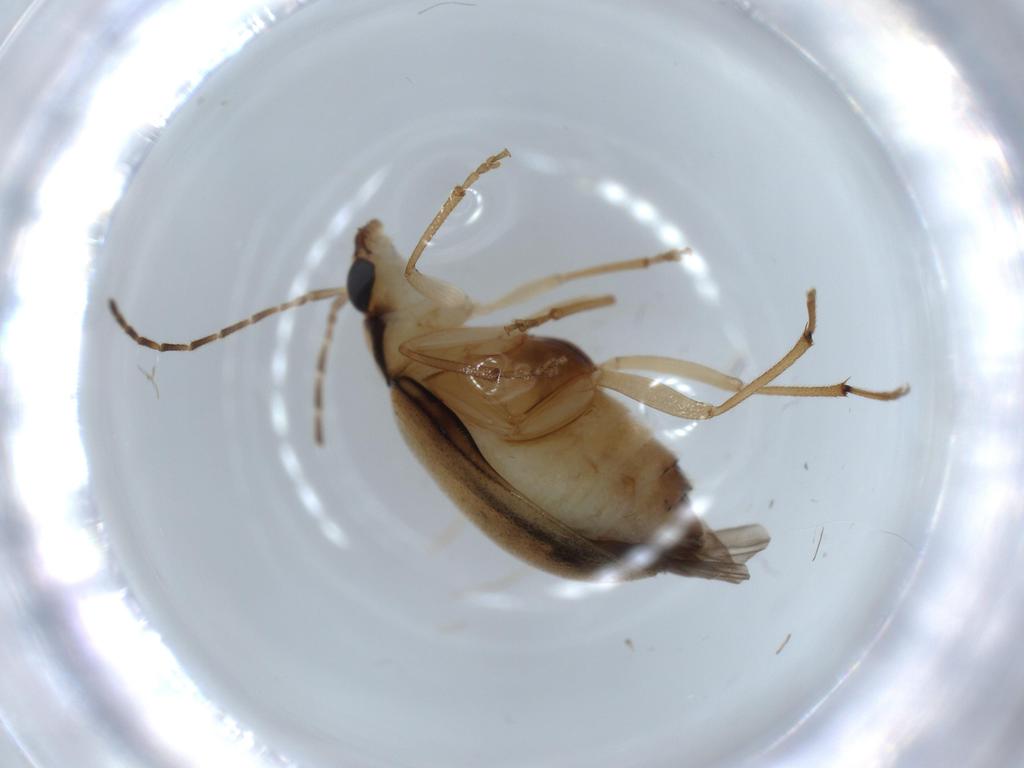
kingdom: Animalia
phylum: Arthropoda
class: Insecta
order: Coleoptera
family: Chrysomelidae
